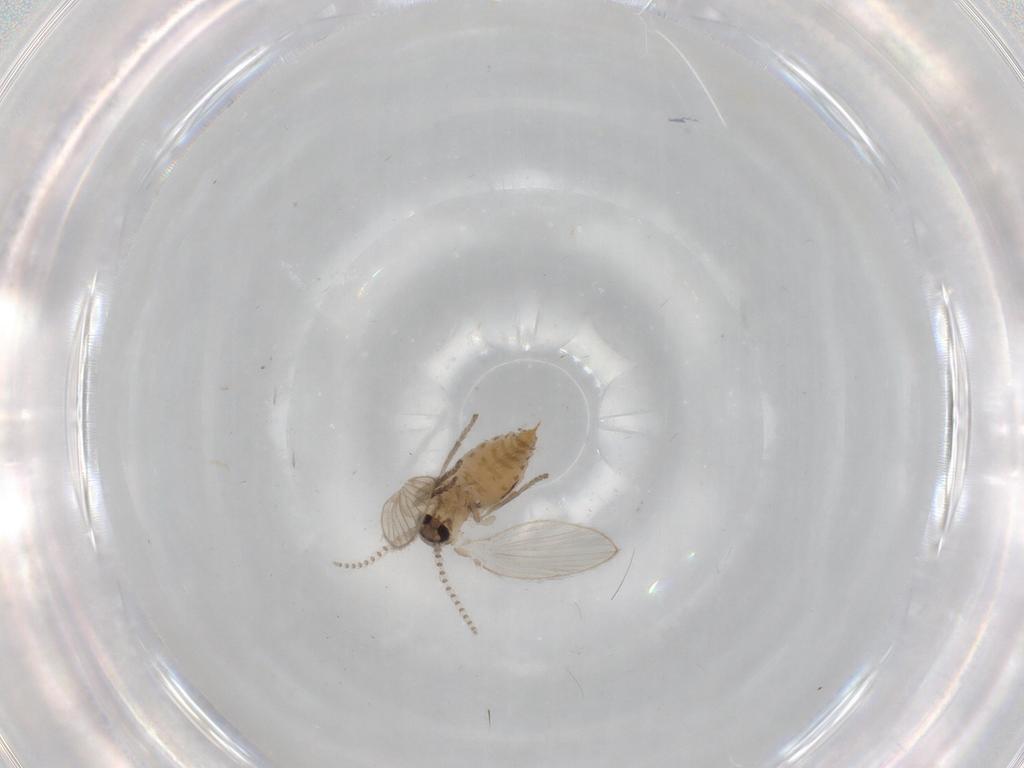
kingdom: Animalia
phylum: Arthropoda
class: Insecta
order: Diptera
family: Psychodidae
